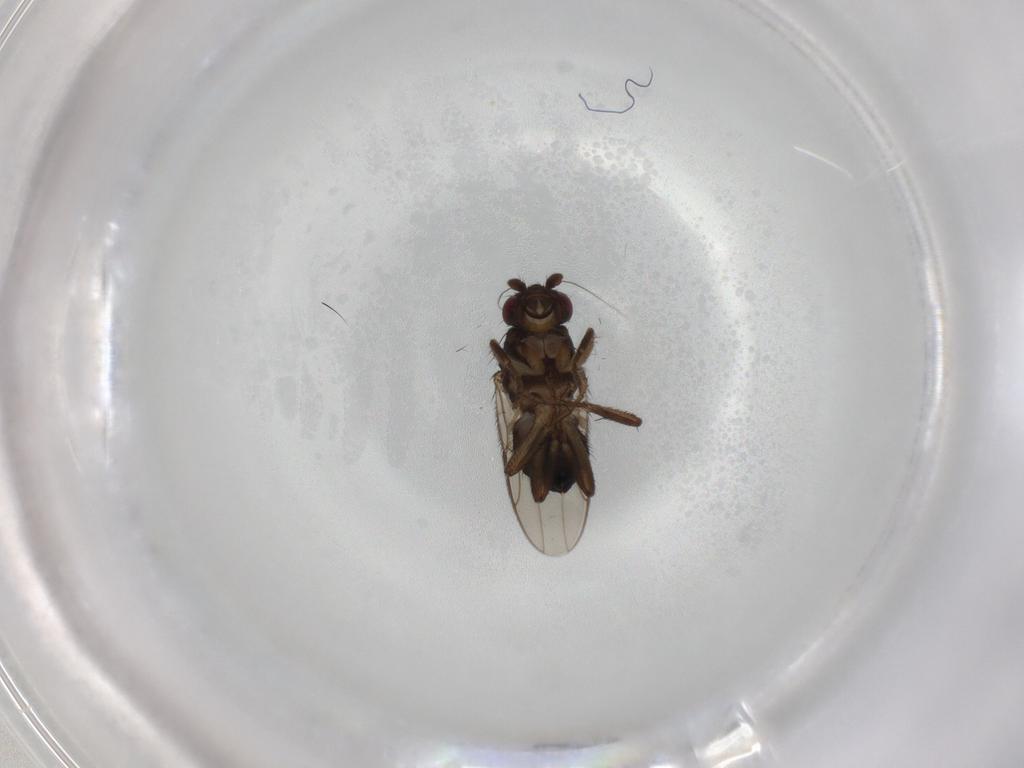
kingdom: Animalia
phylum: Arthropoda
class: Insecta
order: Diptera
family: Sphaeroceridae
